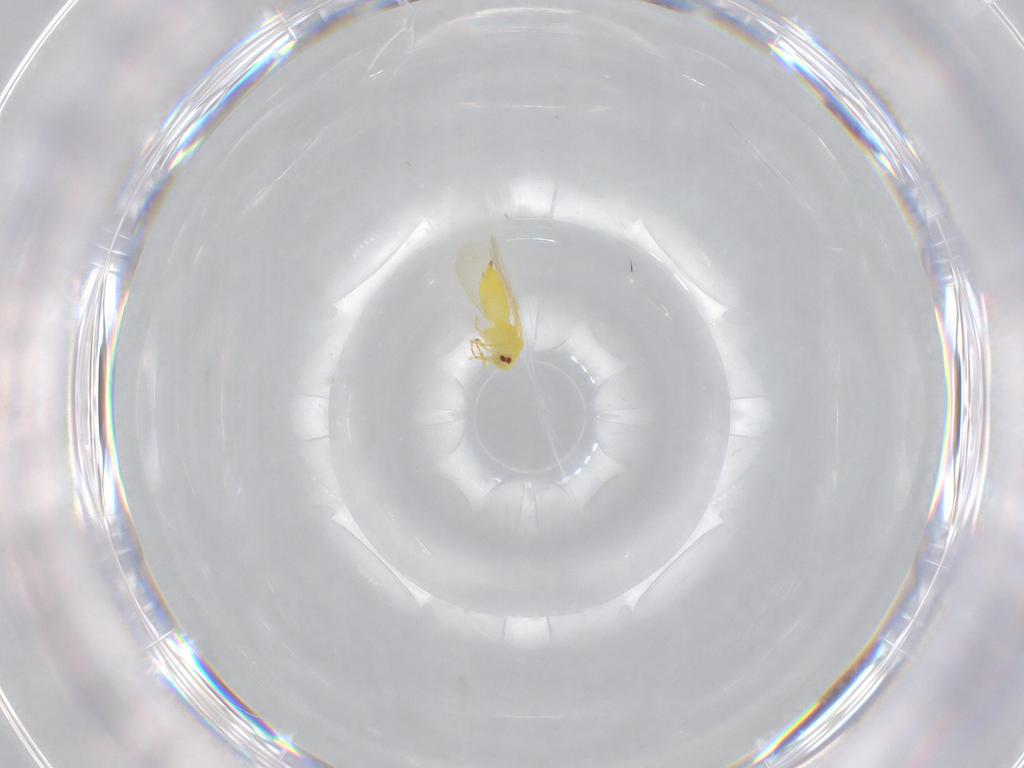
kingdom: Animalia
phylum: Arthropoda
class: Insecta
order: Hemiptera
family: Aleyrodidae
